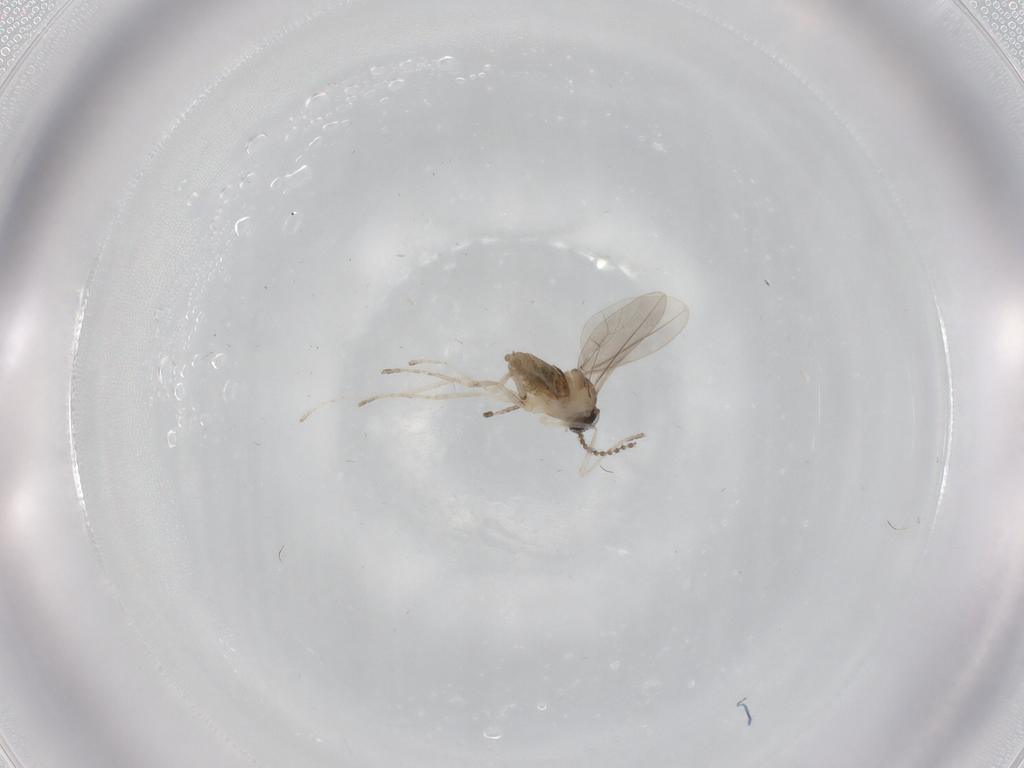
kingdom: Animalia
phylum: Arthropoda
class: Insecta
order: Diptera
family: Cecidomyiidae
